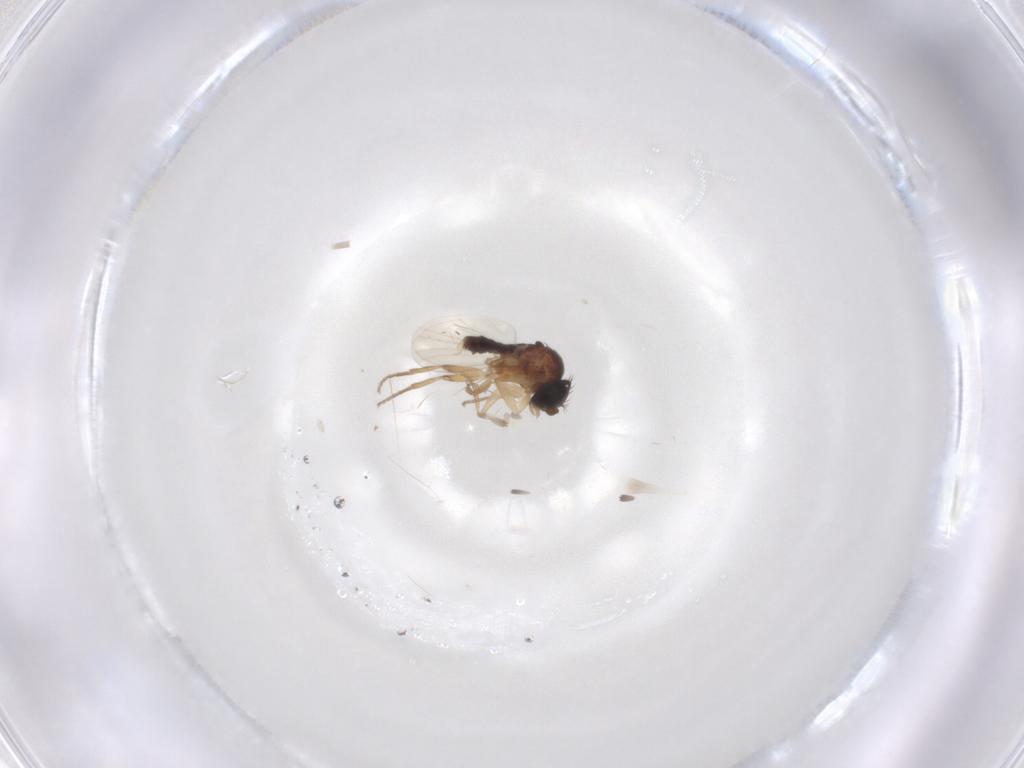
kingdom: Animalia
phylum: Arthropoda
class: Insecta
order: Diptera
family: Phoridae
